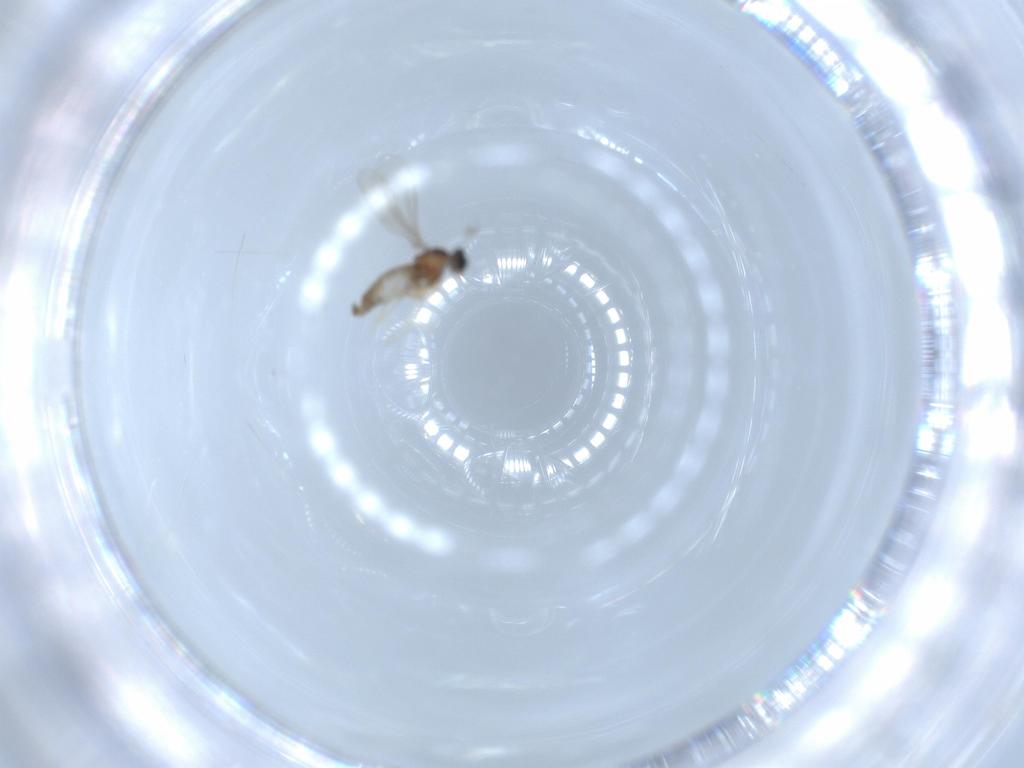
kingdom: Animalia
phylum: Arthropoda
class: Insecta
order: Diptera
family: Cecidomyiidae
